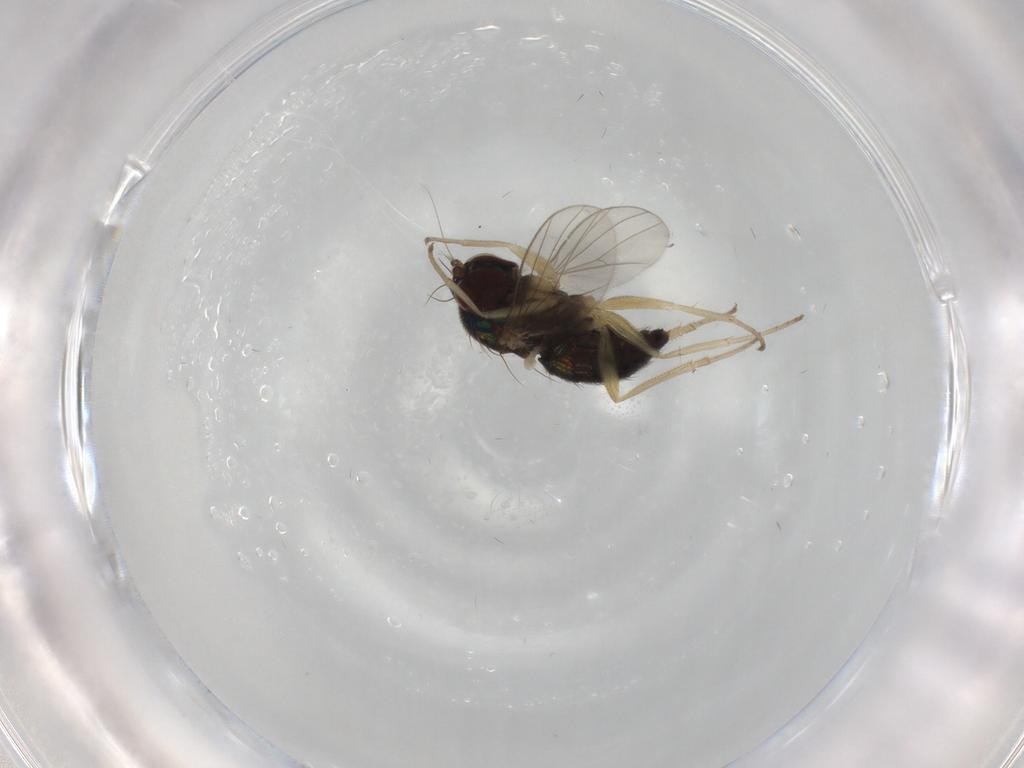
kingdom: Animalia
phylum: Arthropoda
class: Insecta
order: Diptera
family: Dolichopodidae
